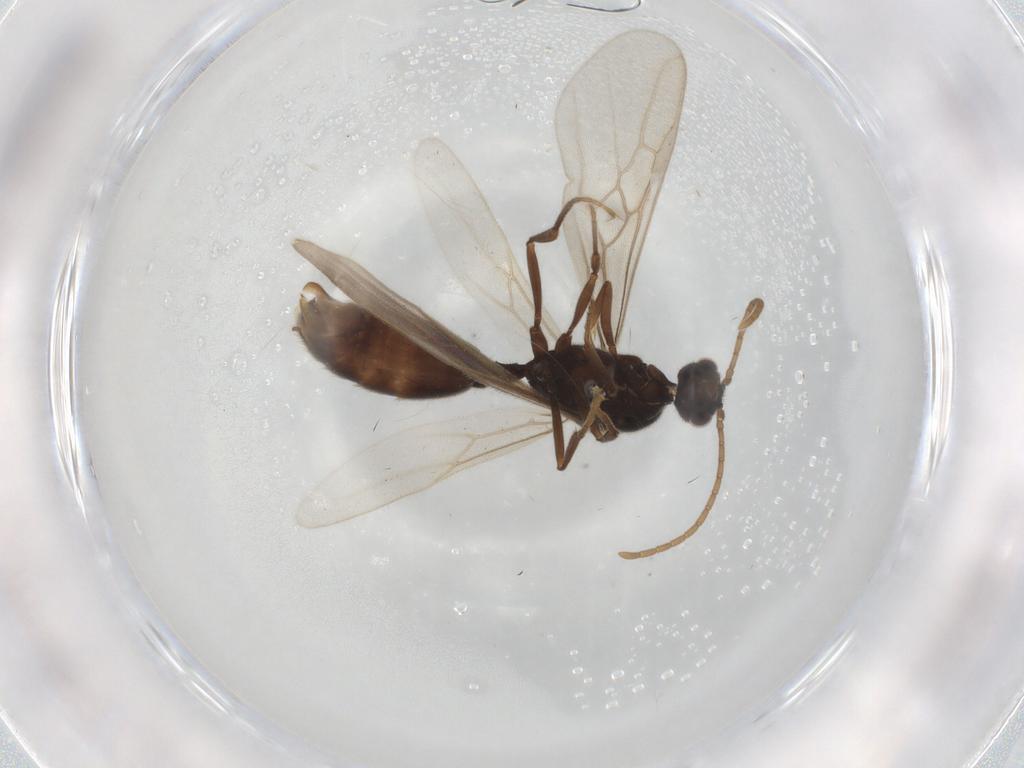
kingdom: Animalia
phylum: Arthropoda
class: Insecta
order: Hymenoptera
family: Formicidae
